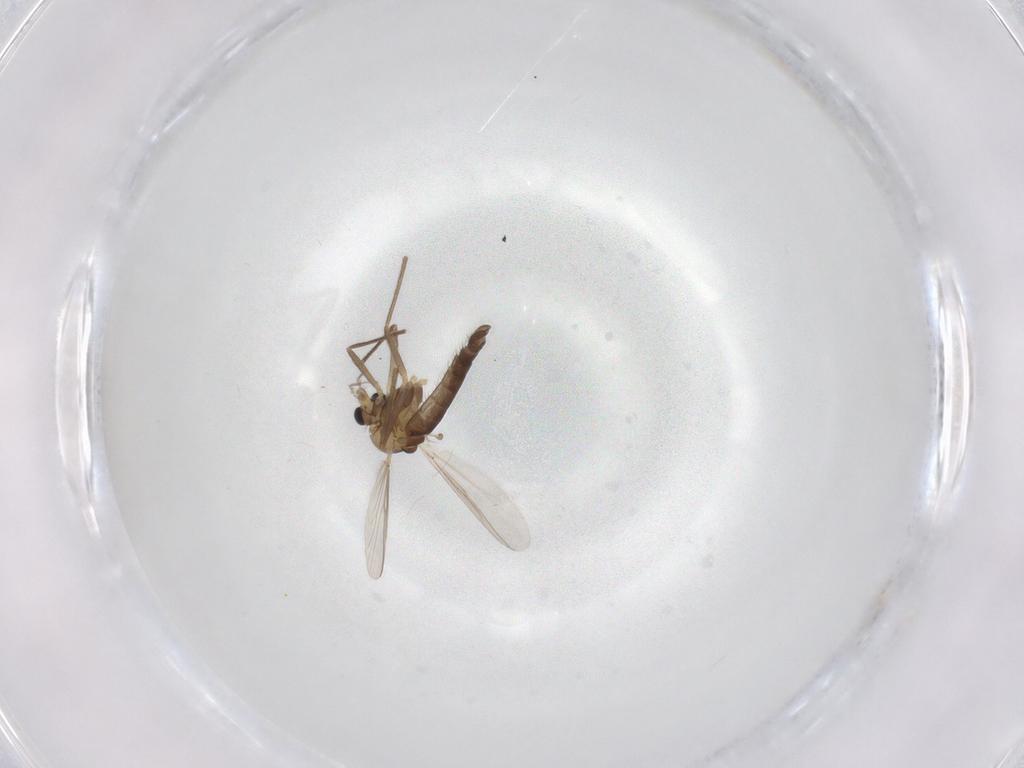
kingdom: Animalia
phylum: Arthropoda
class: Insecta
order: Diptera
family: Chironomidae
